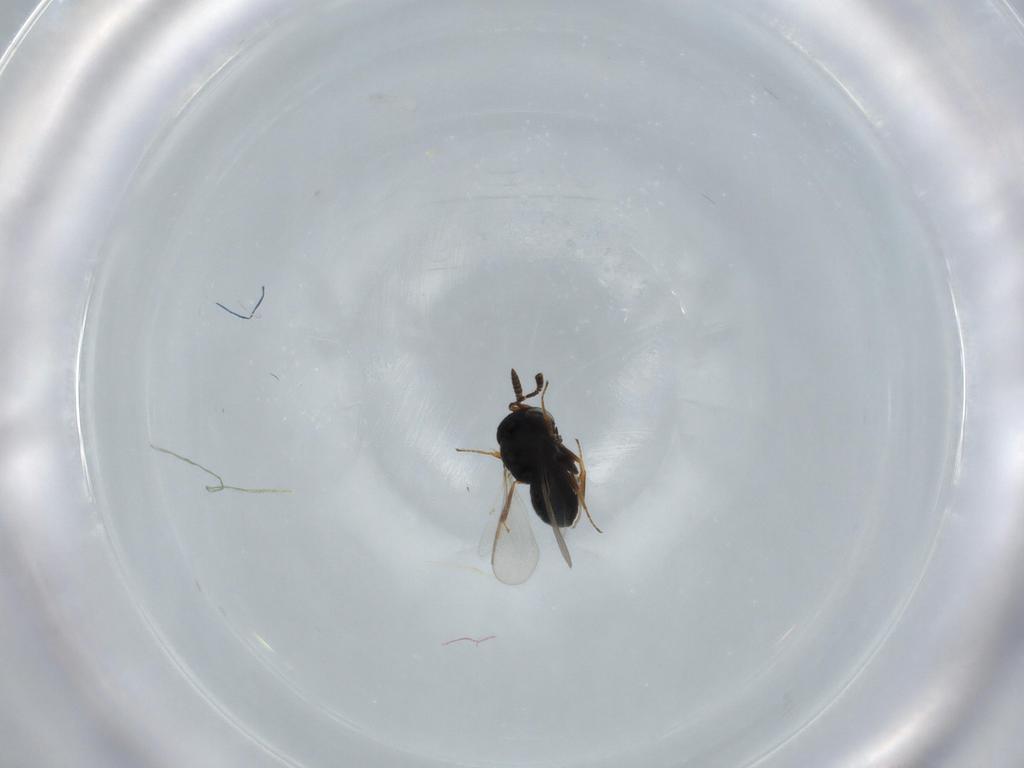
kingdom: Animalia
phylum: Arthropoda
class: Insecta
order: Hymenoptera
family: Scelionidae
